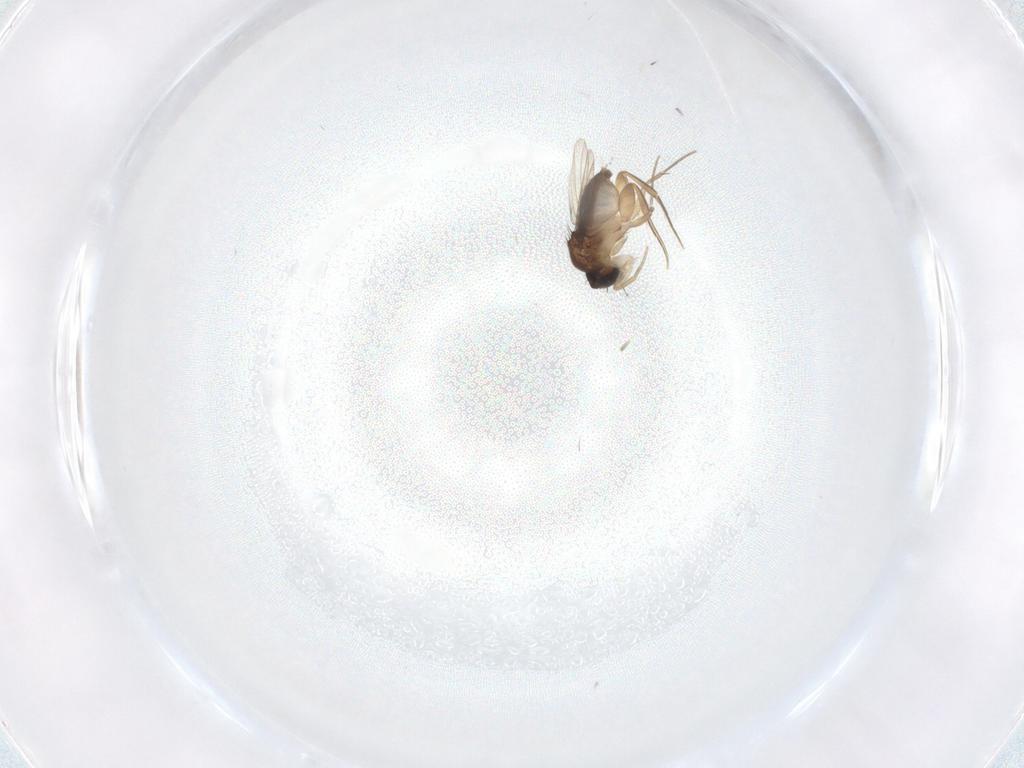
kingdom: Animalia
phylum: Arthropoda
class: Insecta
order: Diptera
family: Phoridae
